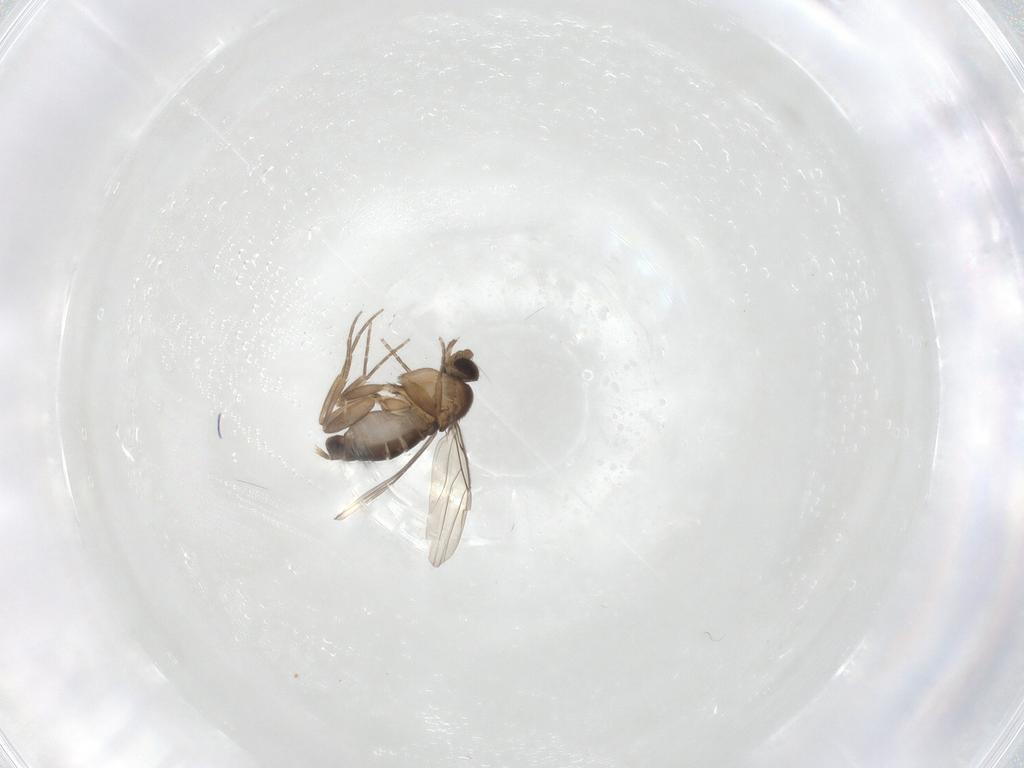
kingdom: Animalia
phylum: Arthropoda
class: Insecta
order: Diptera
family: Phoridae
